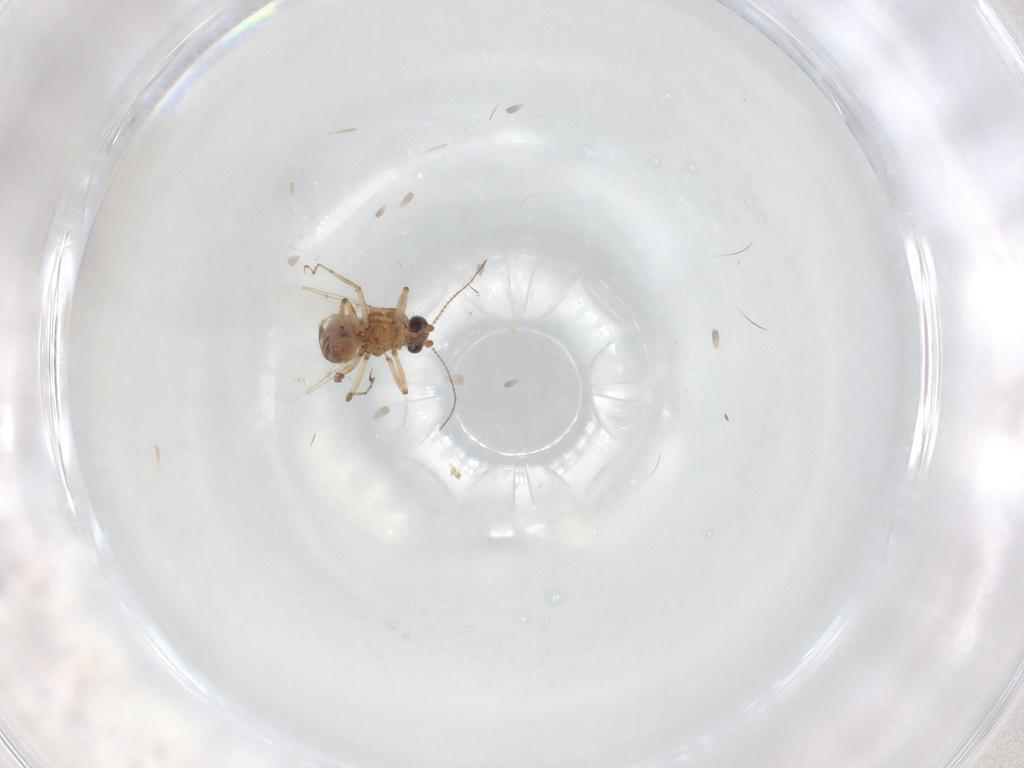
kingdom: Animalia
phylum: Arthropoda
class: Insecta
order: Diptera
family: Ceratopogonidae
